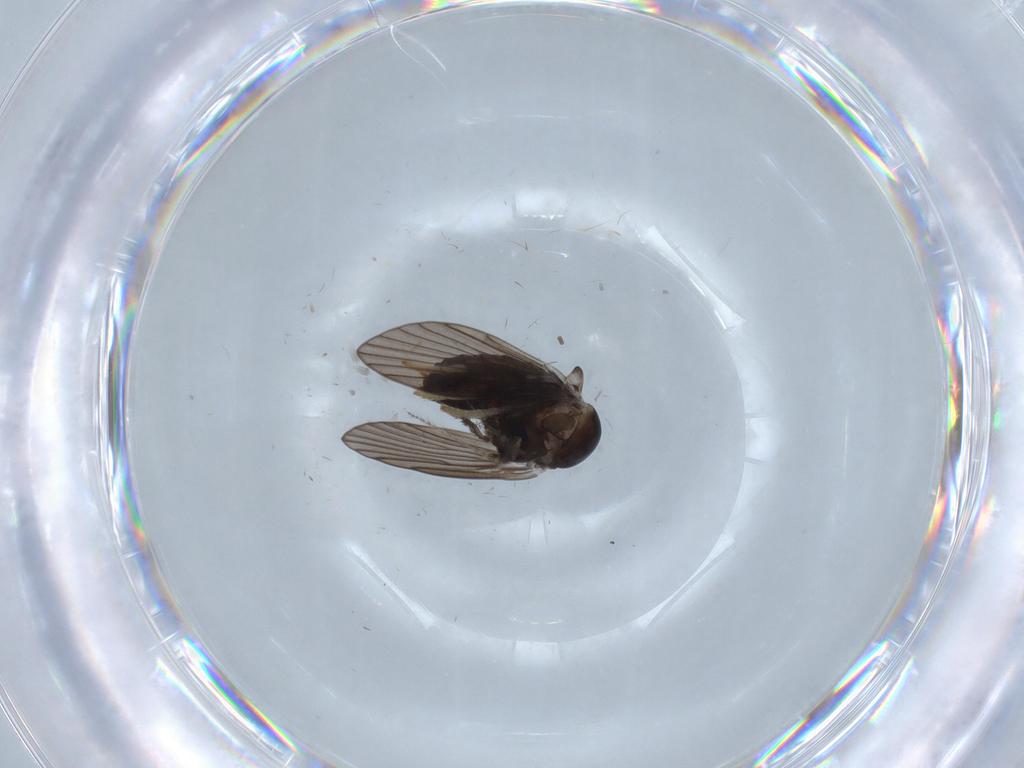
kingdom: Animalia
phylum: Arthropoda
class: Insecta
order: Diptera
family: Psychodidae
